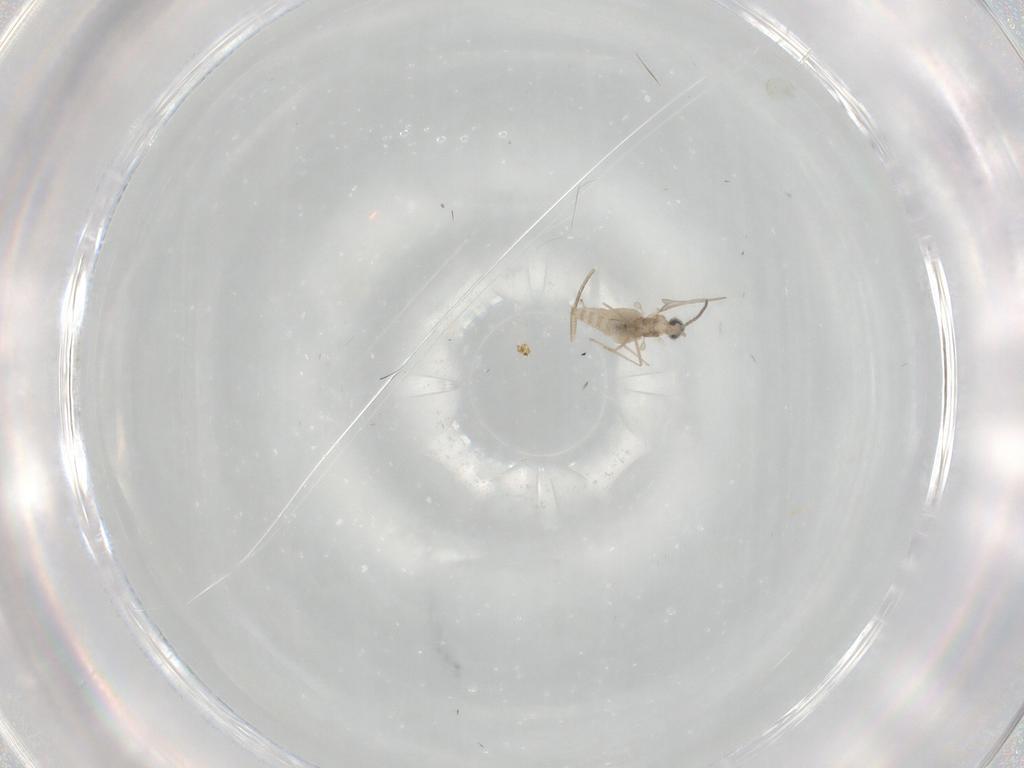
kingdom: Animalia
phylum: Arthropoda
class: Insecta
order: Diptera
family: Cecidomyiidae
